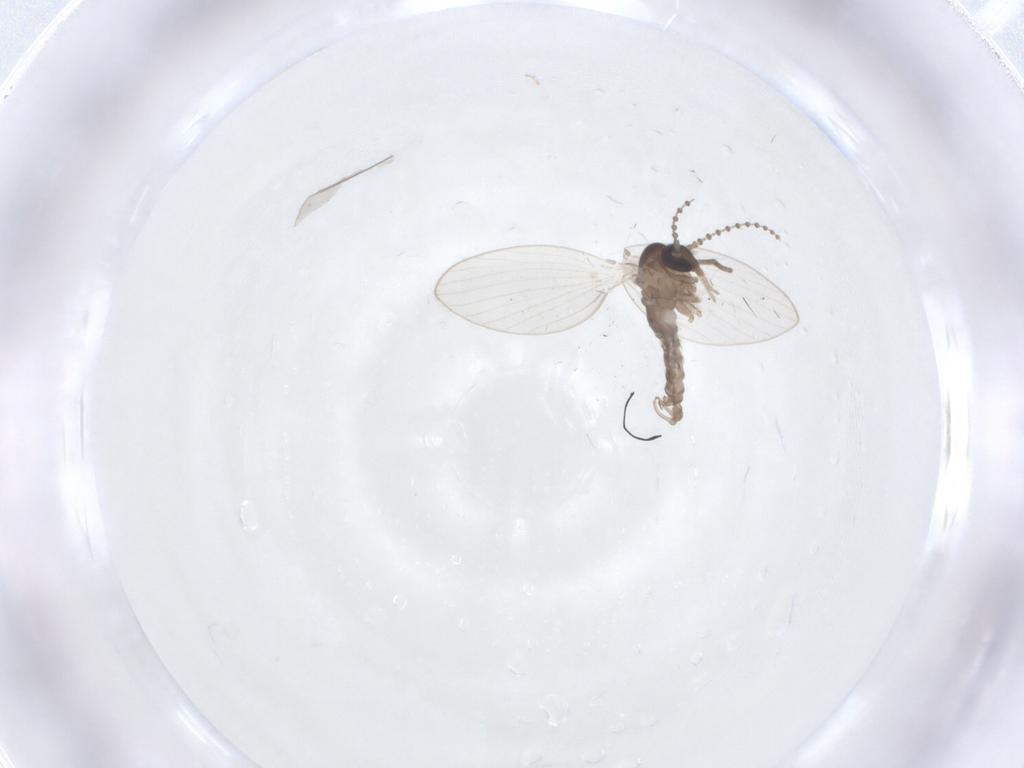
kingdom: Animalia
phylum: Arthropoda
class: Insecta
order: Diptera
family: Psychodidae
